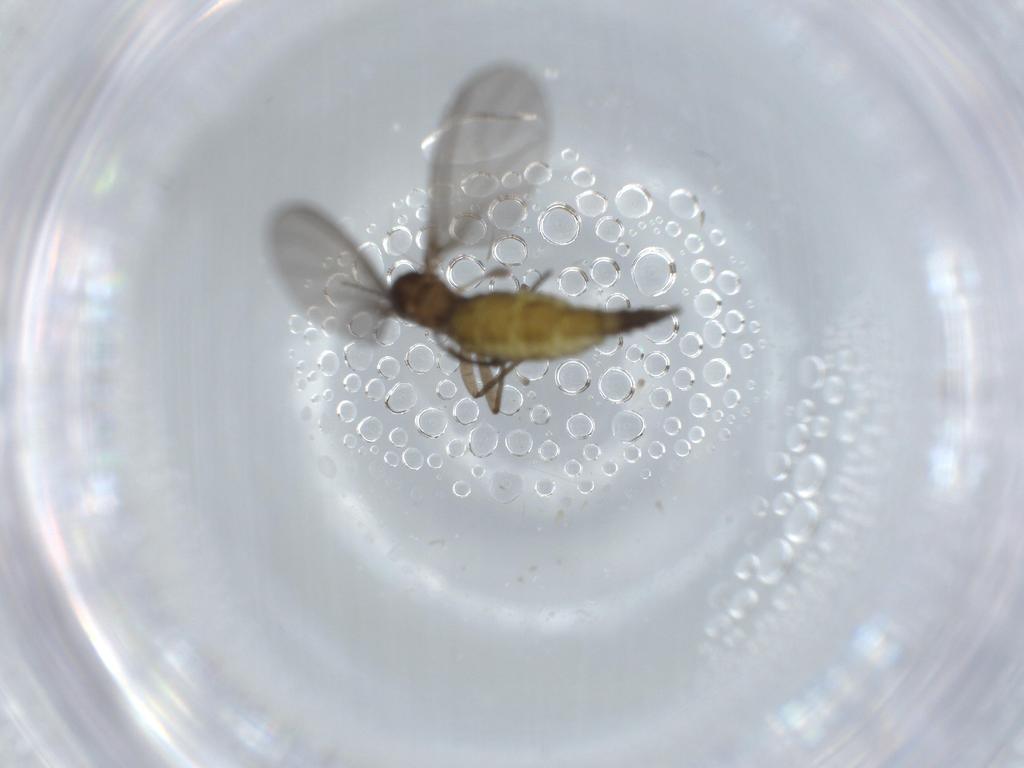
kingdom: Animalia
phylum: Arthropoda
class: Insecta
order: Diptera
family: Sciaridae
